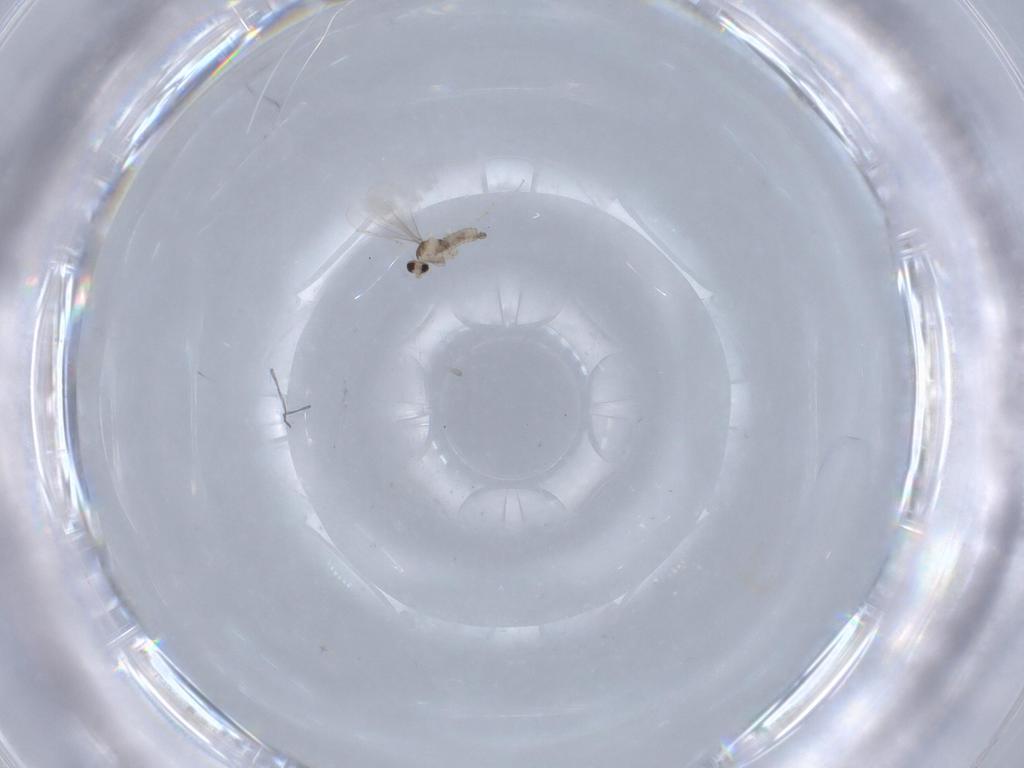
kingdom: Animalia
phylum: Arthropoda
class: Insecta
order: Diptera
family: Cecidomyiidae
